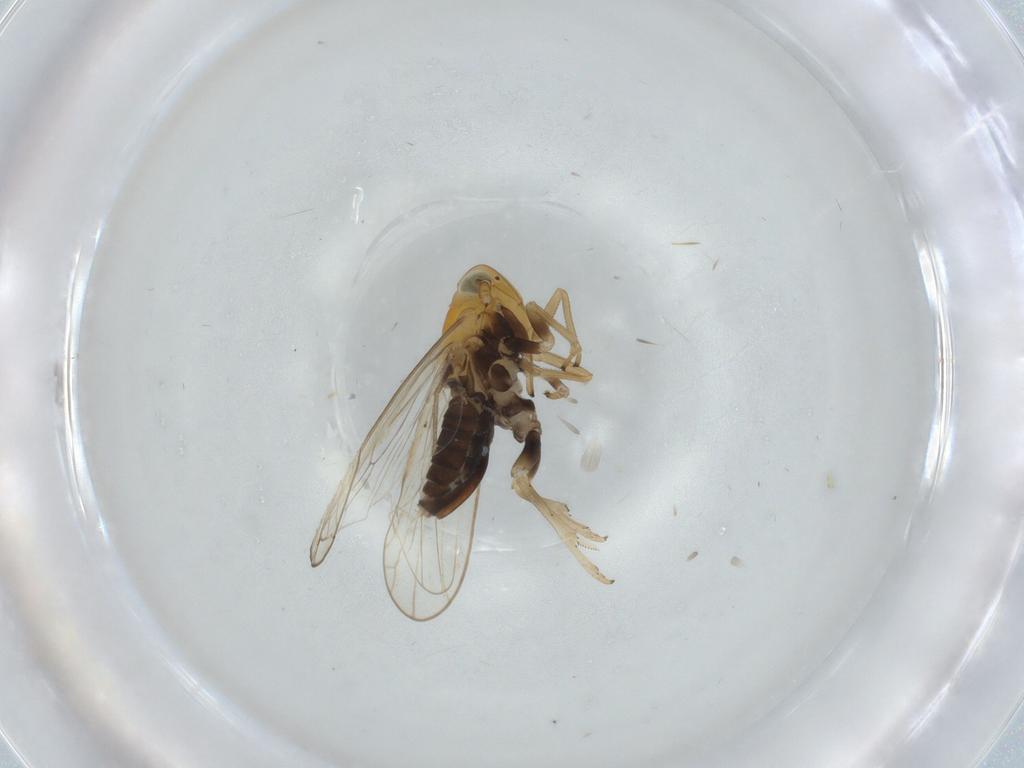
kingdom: Animalia
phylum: Arthropoda
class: Insecta
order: Hemiptera
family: Delphacidae
